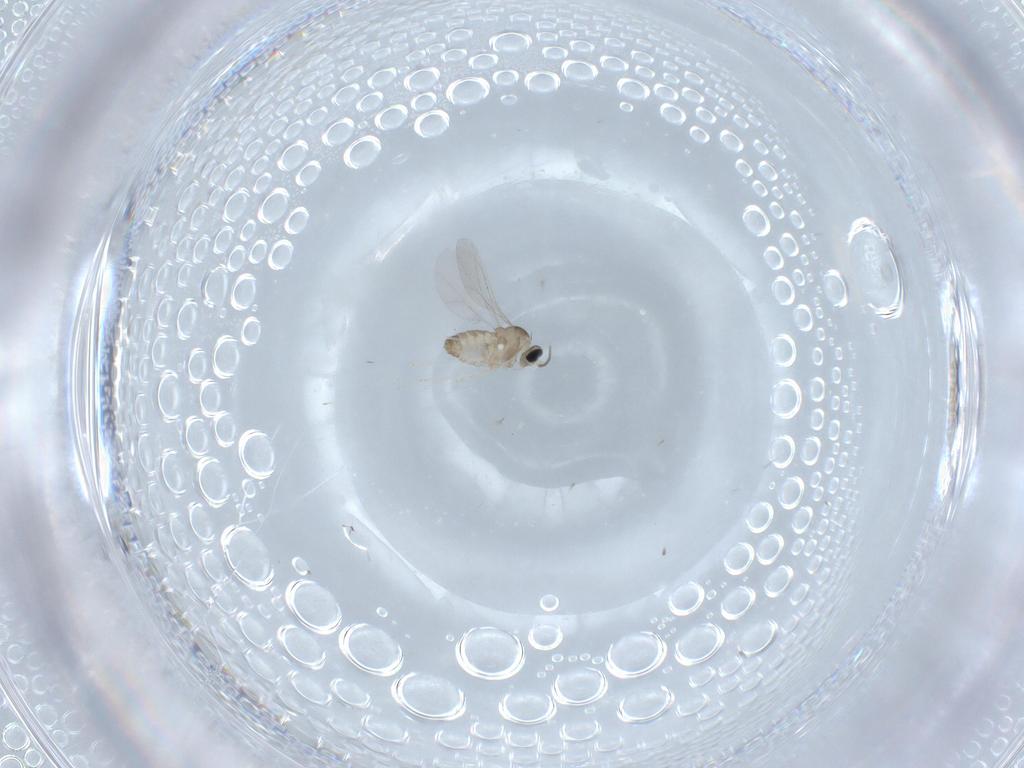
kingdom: Animalia
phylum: Arthropoda
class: Insecta
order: Diptera
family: Cecidomyiidae
